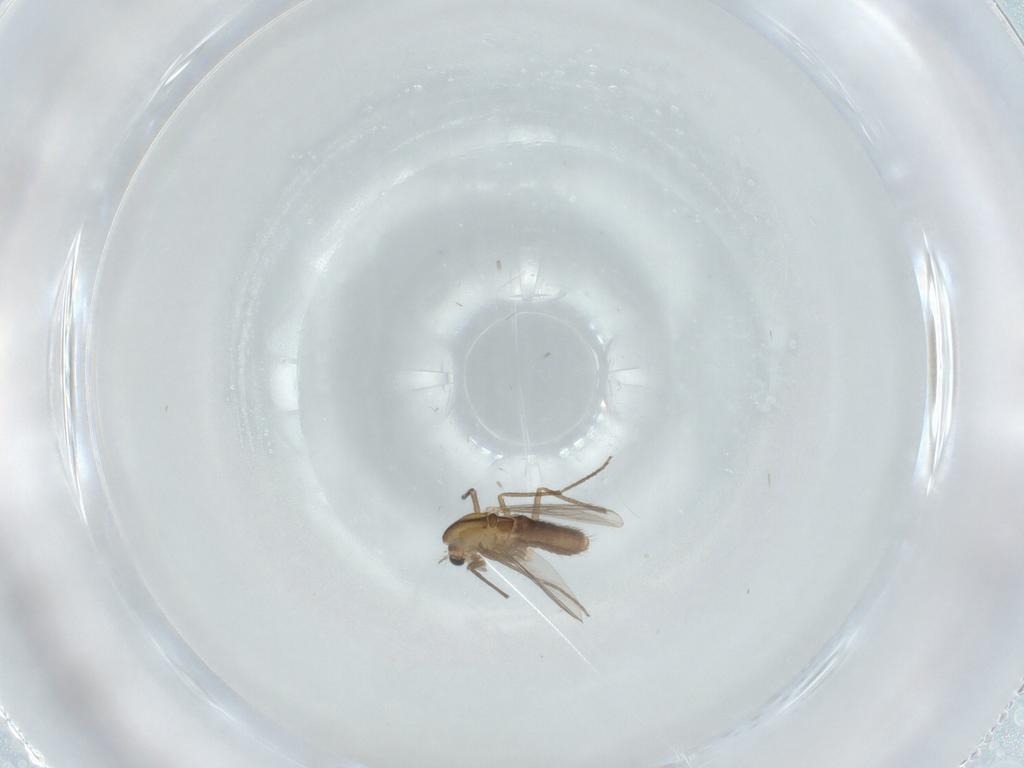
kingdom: Animalia
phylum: Arthropoda
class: Insecta
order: Diptera
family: Chironomidae
